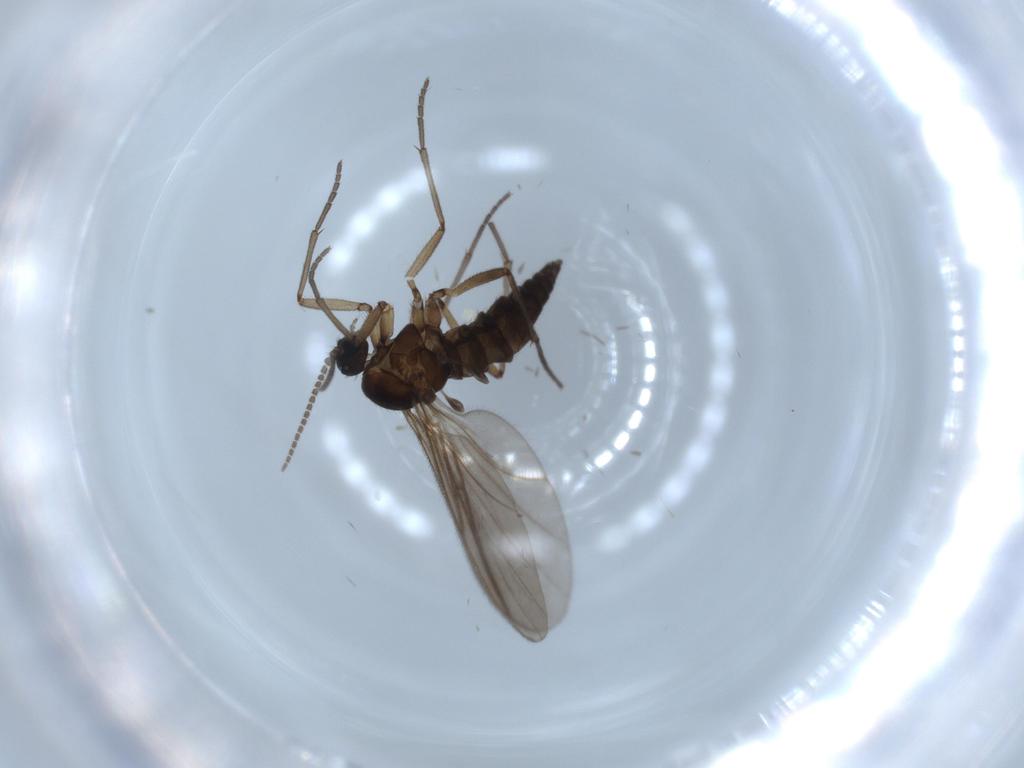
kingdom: Animalia
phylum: Arthropoda
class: Insecta
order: Diptera
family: Sciaridae
